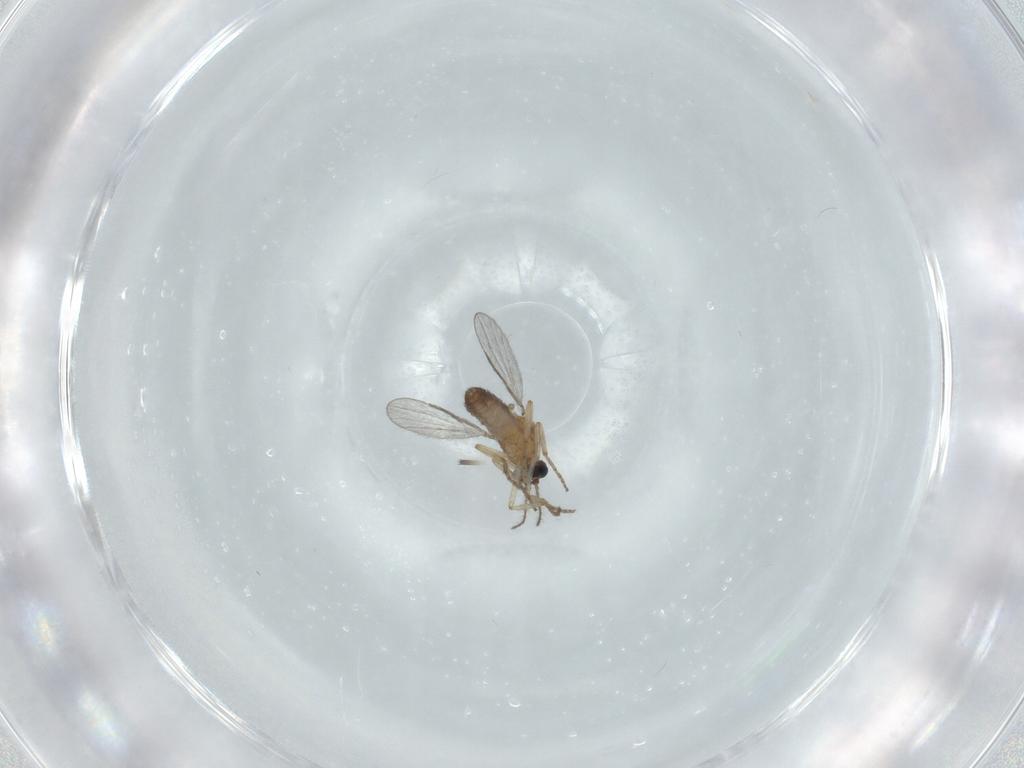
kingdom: Animalia
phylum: Arthropoda
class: Insecta
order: Diptera
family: Ceratopogonidae
